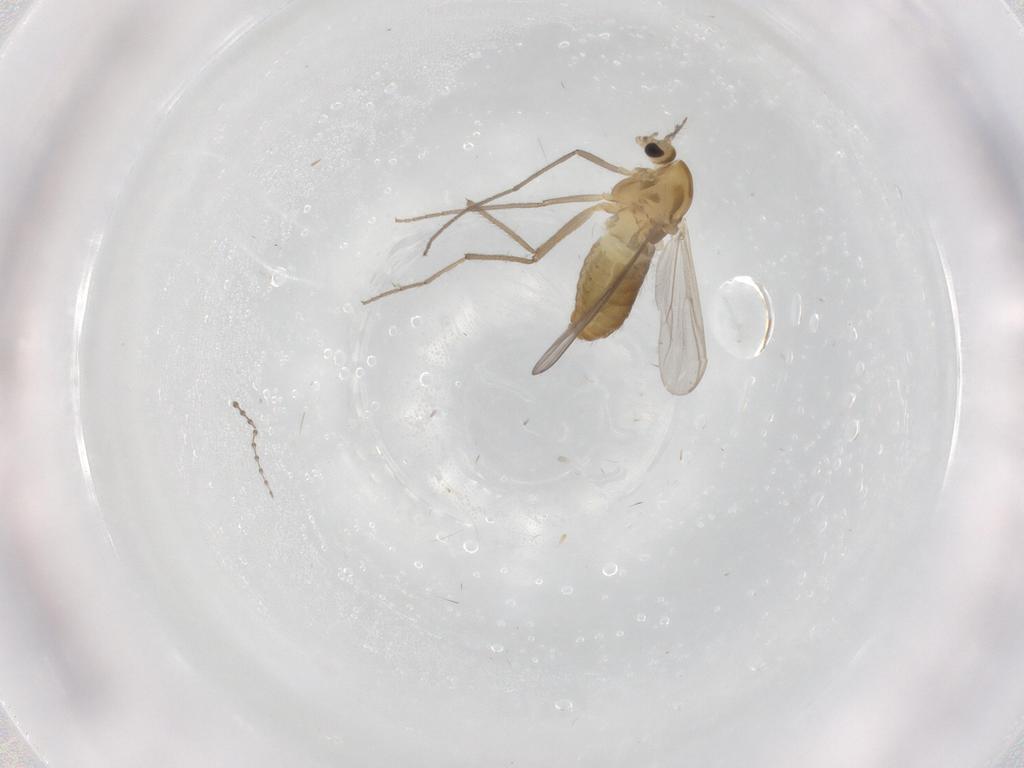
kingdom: Animalia
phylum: Arthropoda
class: Insecta
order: Diptera
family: Chironomidae
